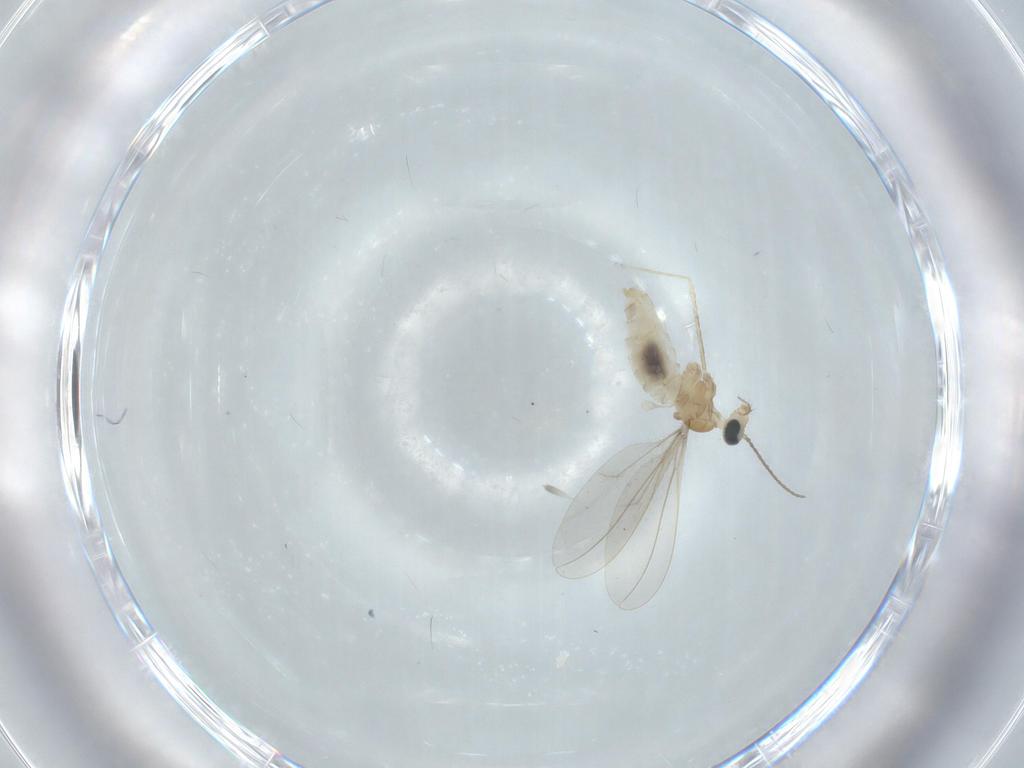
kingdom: Animalia
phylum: Arthropoda
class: Insecta
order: Diptera
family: Cecidomyiidae
